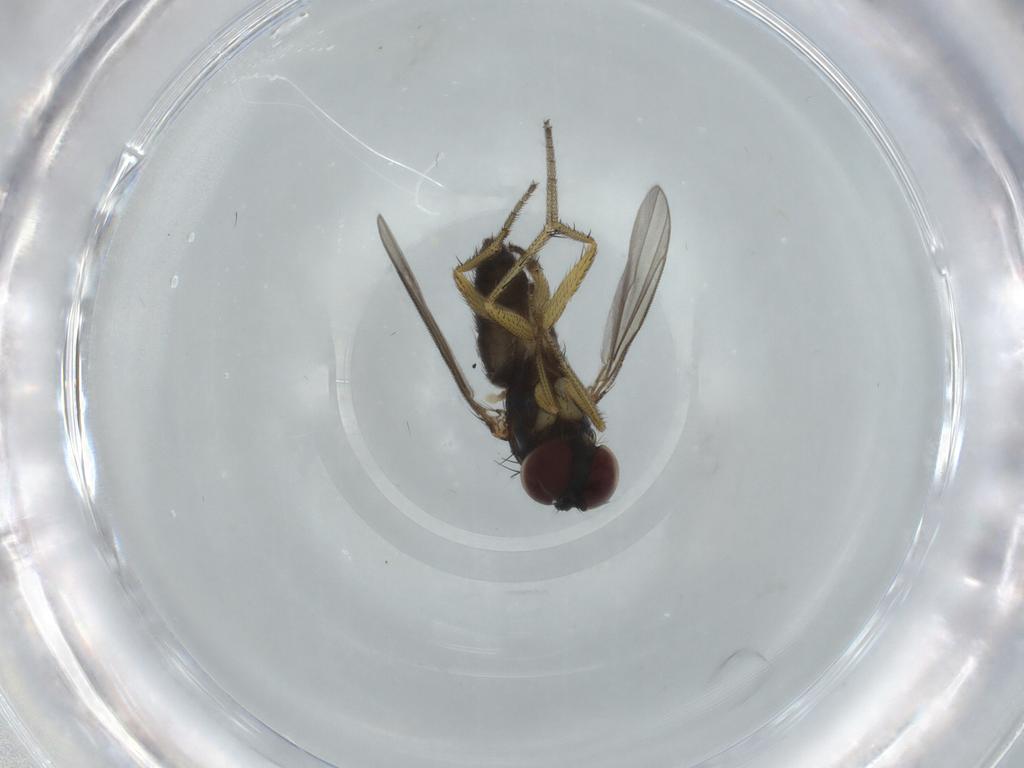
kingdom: Animalia
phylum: Arthropoda
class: Insecta
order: Diptera
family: Dolichopodidae
